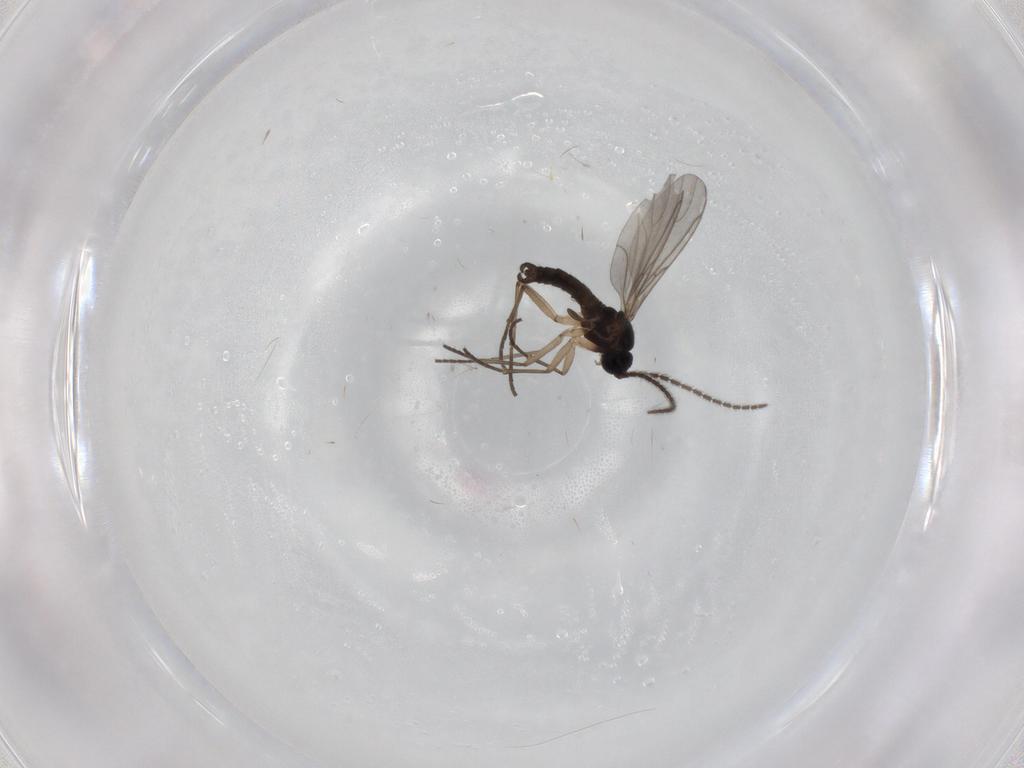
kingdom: Animalia
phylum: Arthropoda
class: Insecta
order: Diptera
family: Sciaridae
